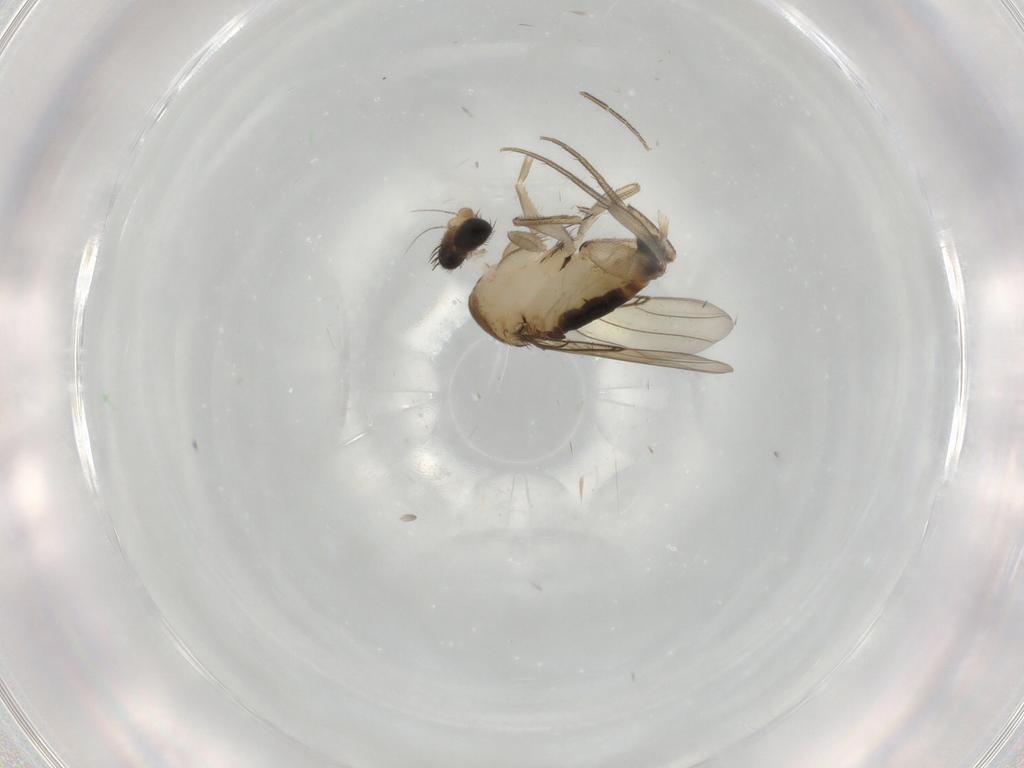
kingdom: Animalia
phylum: Arthropoda
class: Insecta
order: Diptera
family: Phoridae
